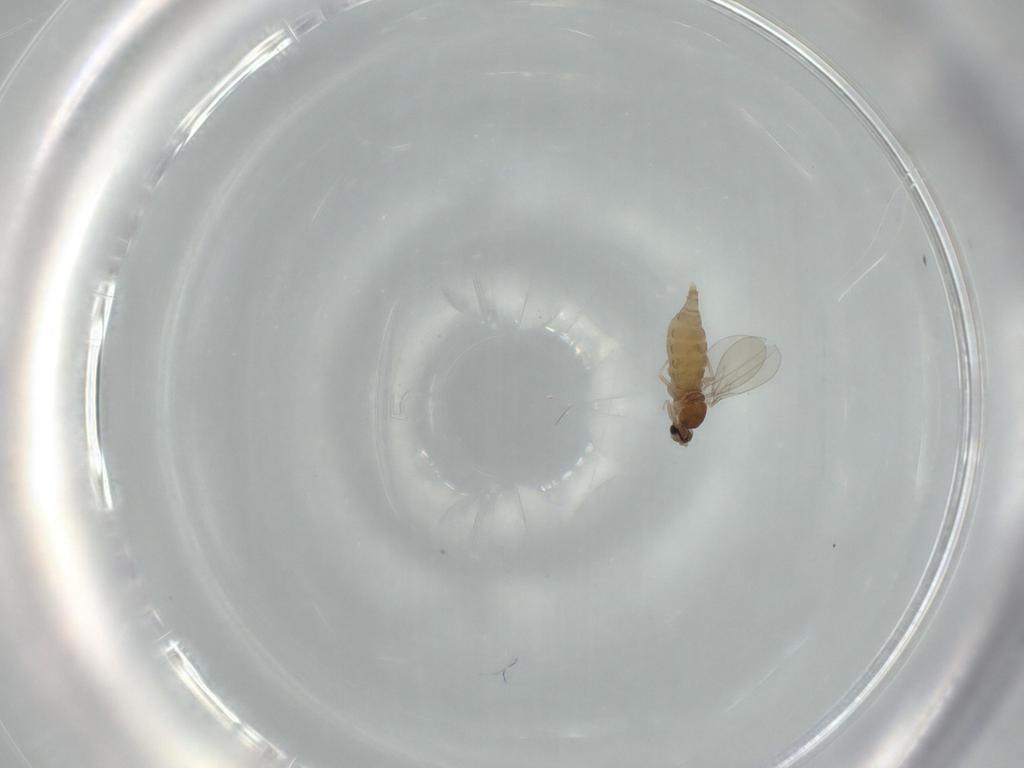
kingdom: Animalia
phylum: Arthropoda
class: Insecta
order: Diptera
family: Cecidomyiidae
